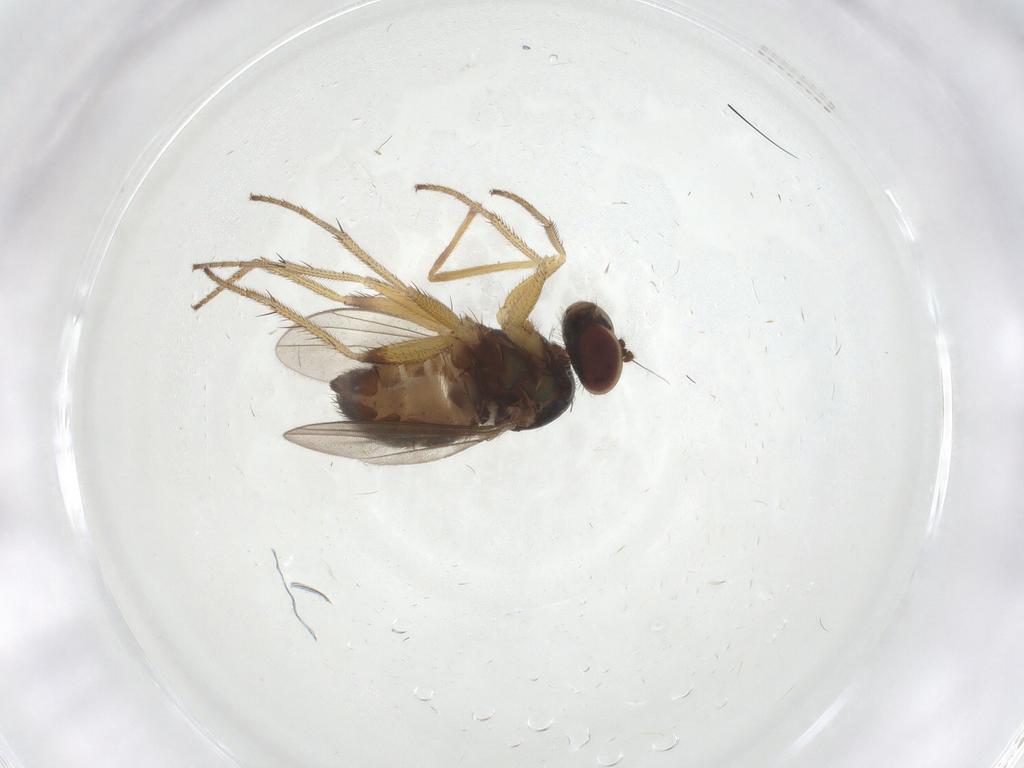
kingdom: Animalia
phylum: Arthropoda
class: Insecta
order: Diptera
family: Dolichopodidae
